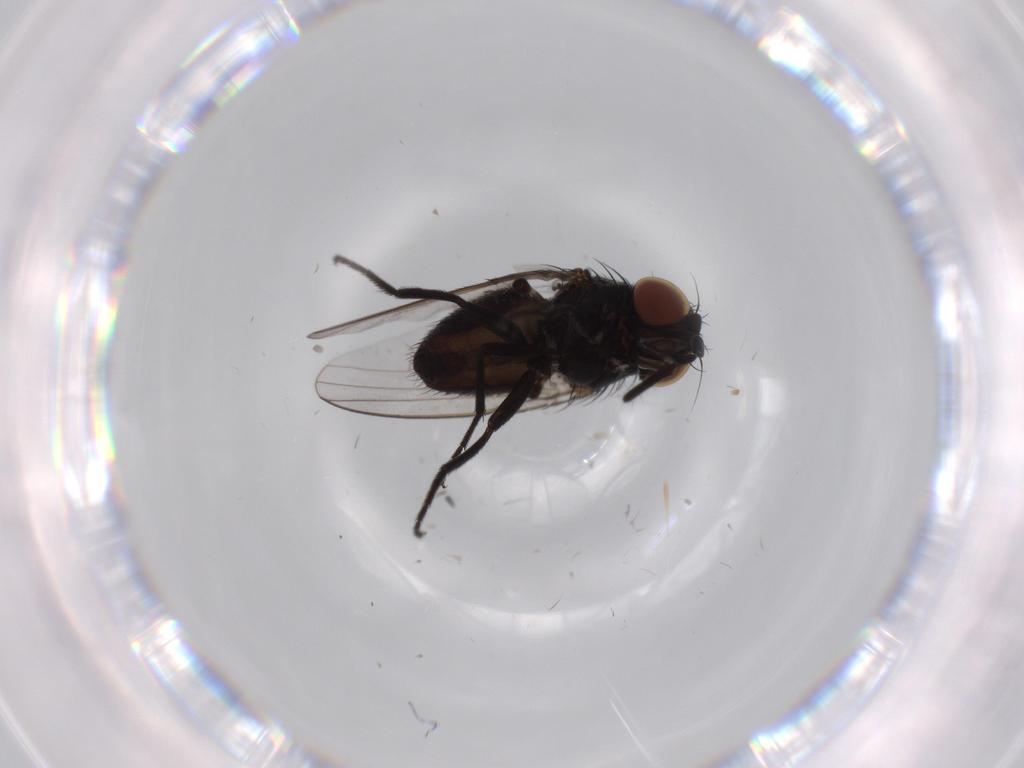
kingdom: Animalia
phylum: Arthropoda
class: Insecta
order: Diptera
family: Milichiidae
